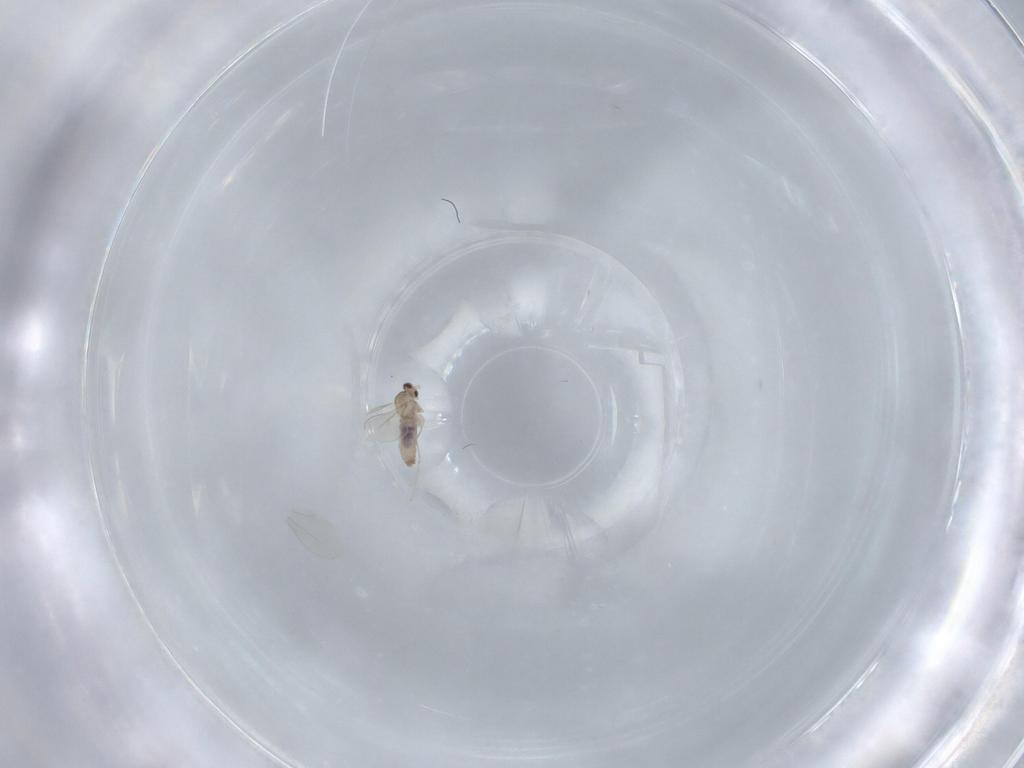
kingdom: Animalia
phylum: Arthropoda
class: Insecta
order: Diptera
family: Cecidomyiidae
